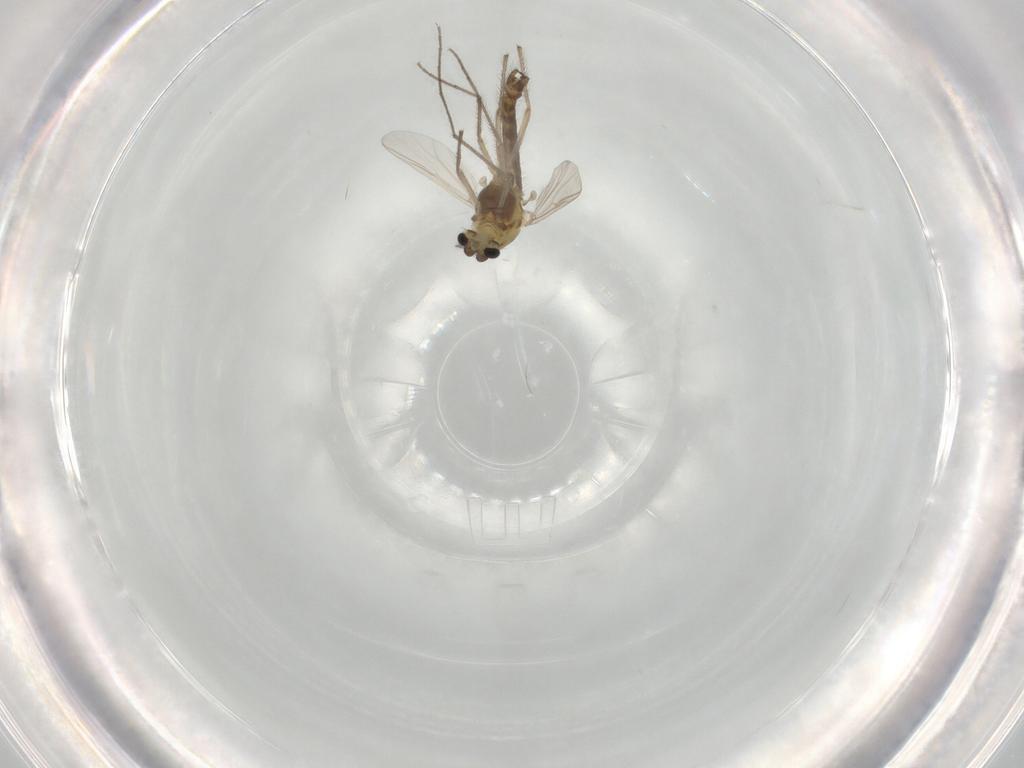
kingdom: Animalia
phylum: Arthropoda
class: Insecta
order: Diptera
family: Chironomidae
